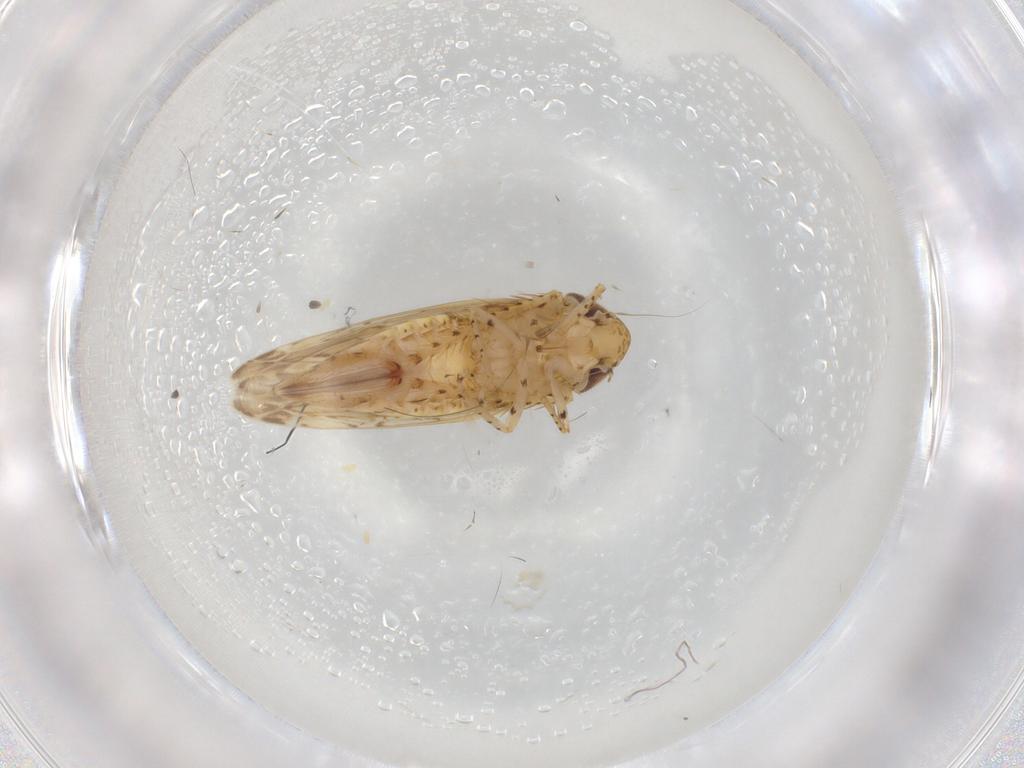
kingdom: Animalia
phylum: Arthropoda
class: Insecta
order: Hemiptera
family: Cicadellidae
